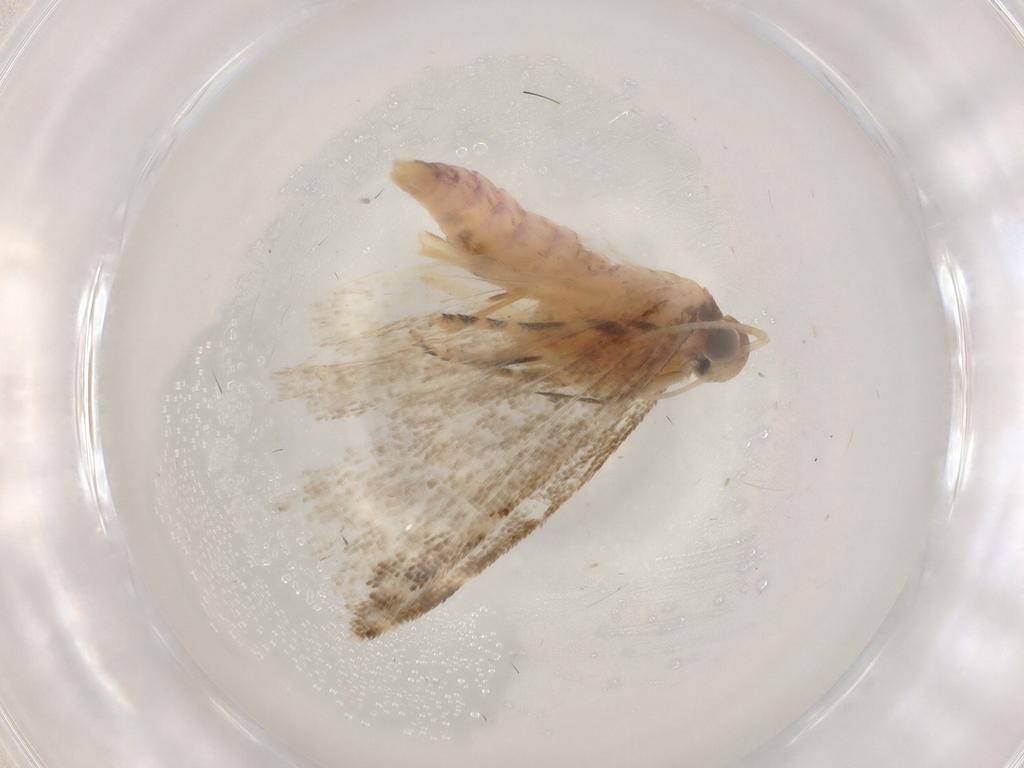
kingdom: Animalia
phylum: Arthropoda
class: Insecta
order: Lepidoptera
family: Gelechiidae
